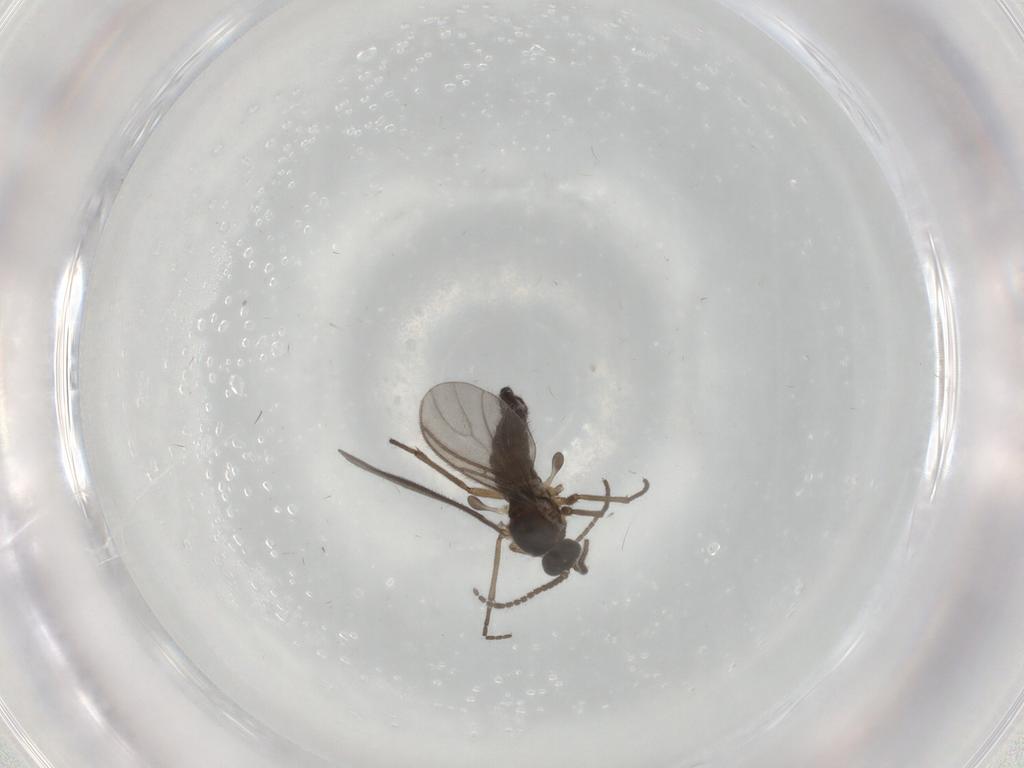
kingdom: Animalia
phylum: Arthropoda
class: Insecta
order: Diptera
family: Sciaridae
